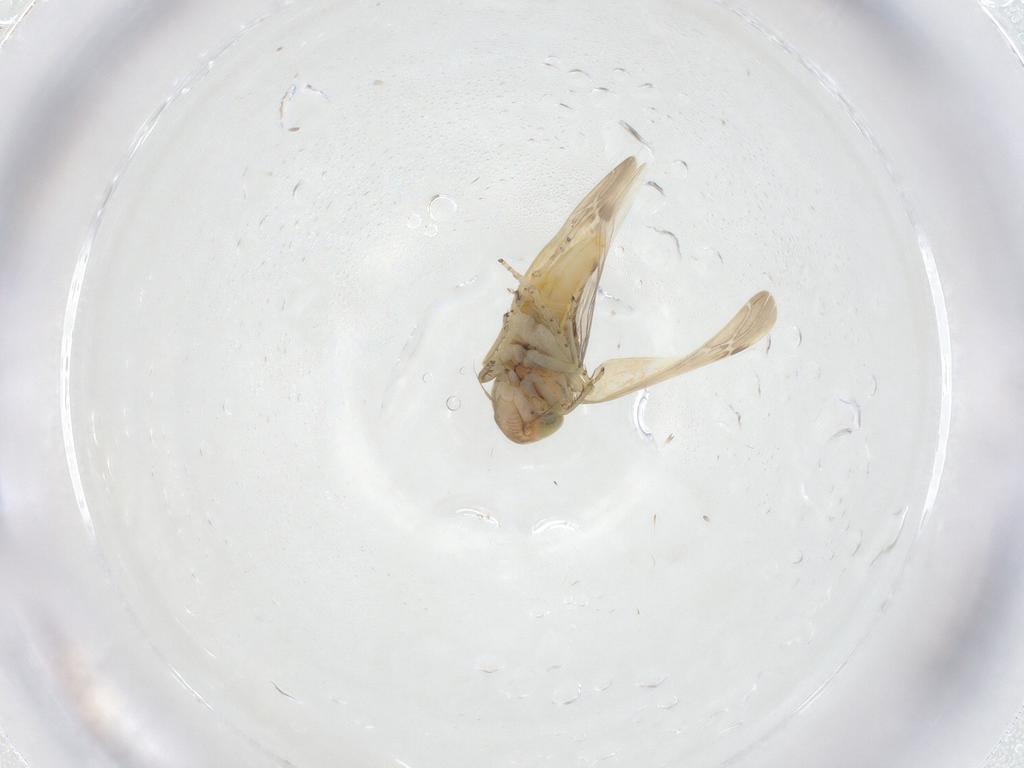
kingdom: Animalia
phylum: Arthropoda
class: Insecta
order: Hemiptera
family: Cicadellidae
